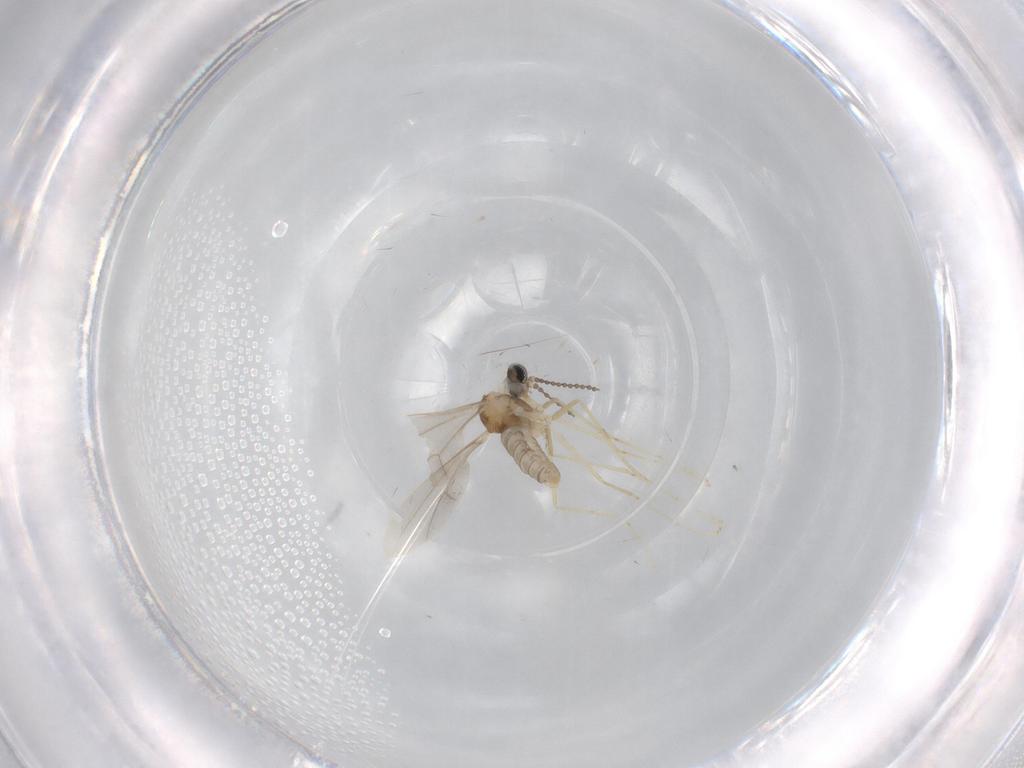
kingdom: Animalia
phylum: Arthropoda
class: Insecta
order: Diptera
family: Cecidomyiidae
